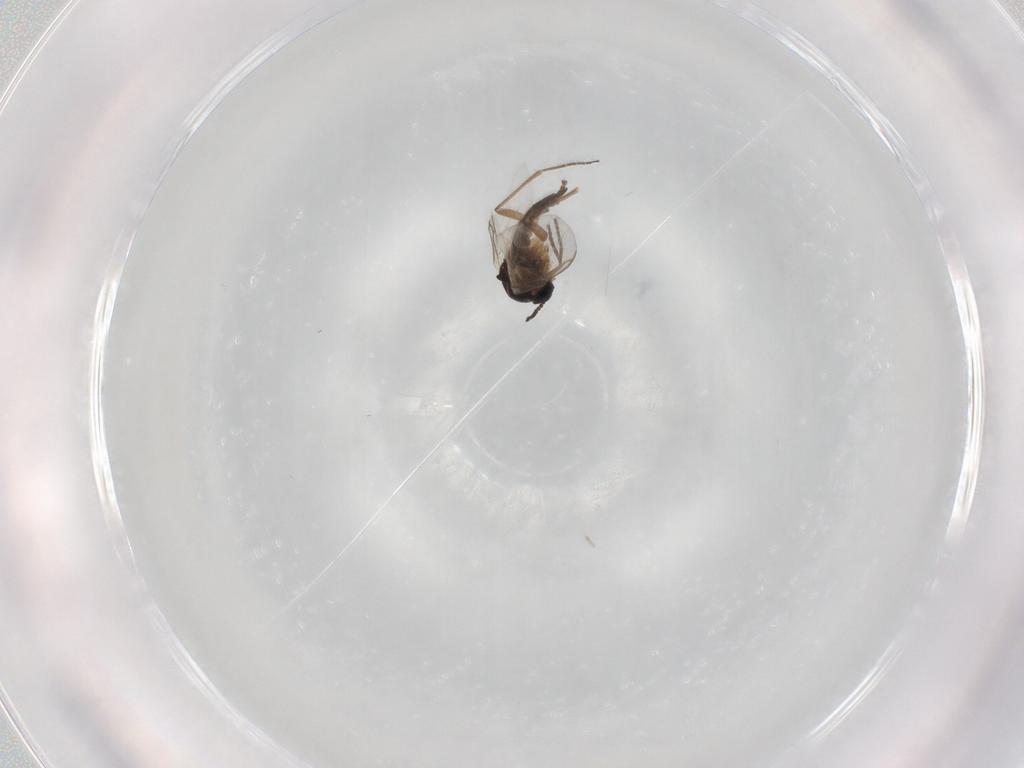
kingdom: Animalia
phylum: Arthropoda
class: Insecta
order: Diptera
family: Sciaridae
